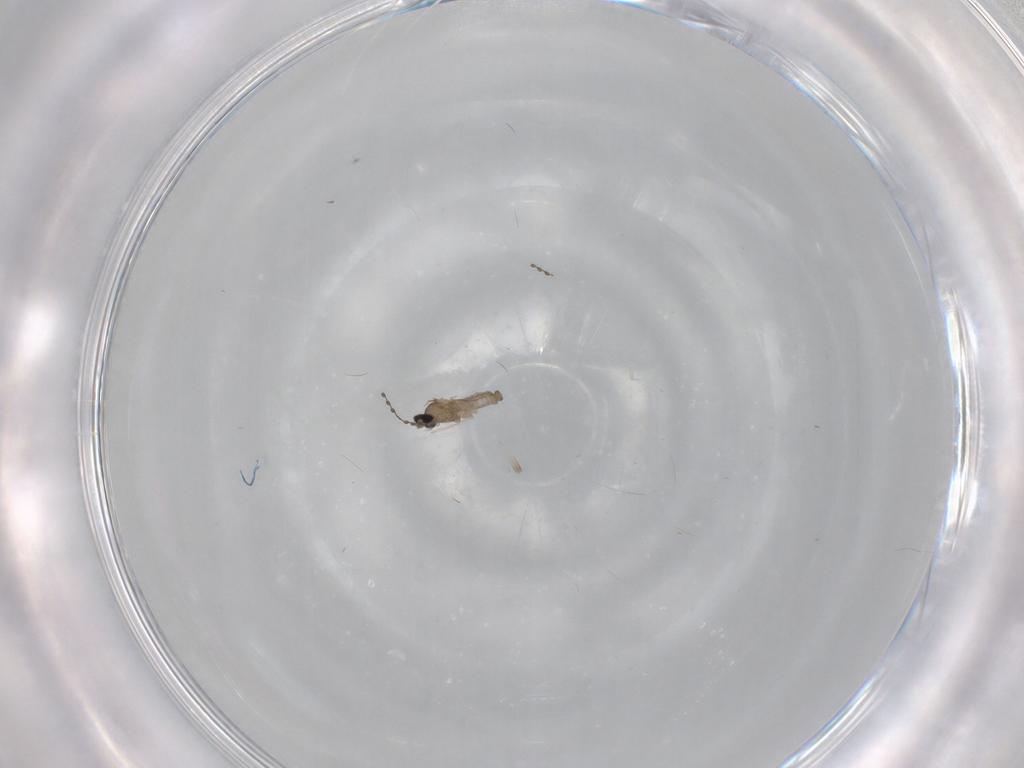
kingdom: Animalia
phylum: Arthropoda
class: Insecta
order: Diptera
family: Cecidomyiidae
